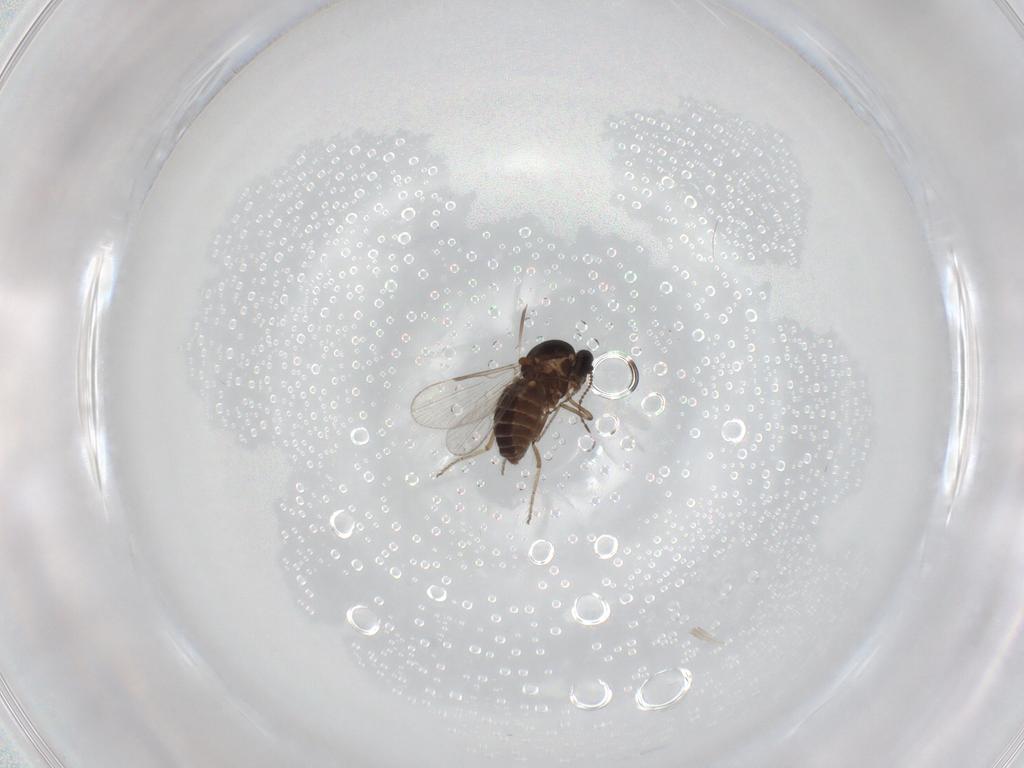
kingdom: Animalia
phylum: Arthropoda
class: Insecta
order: Diptera
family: Ceratopogonidae
